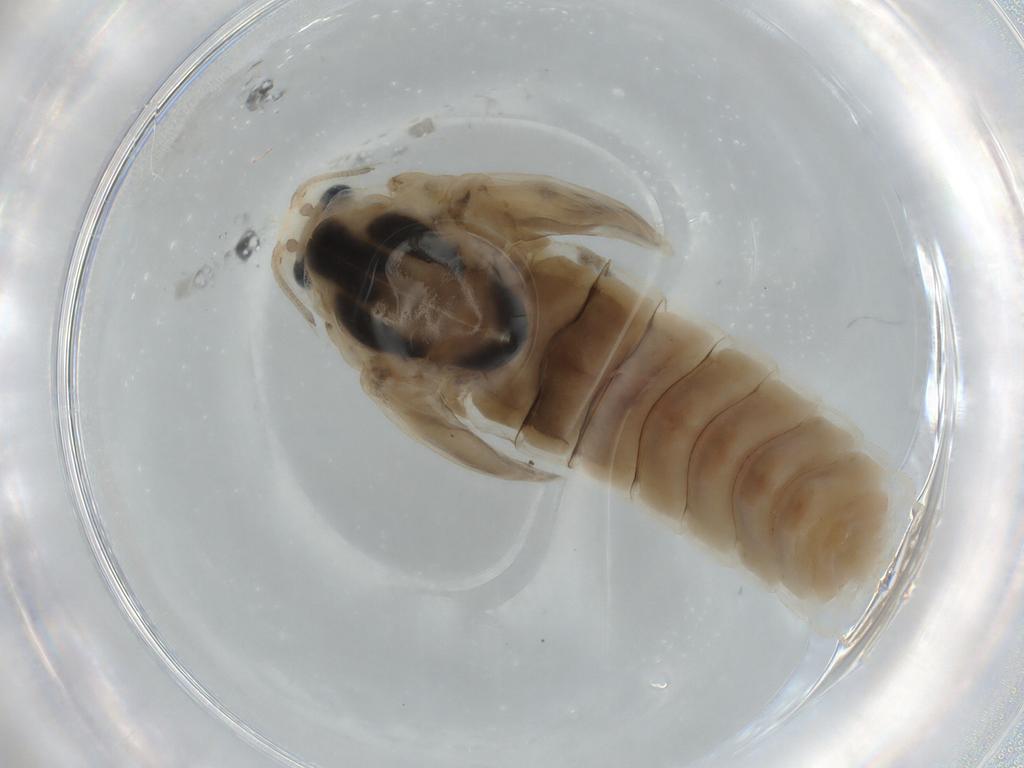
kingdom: Animalia
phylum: Arthropoda
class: Insecta
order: Diptera
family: Chironomidae
